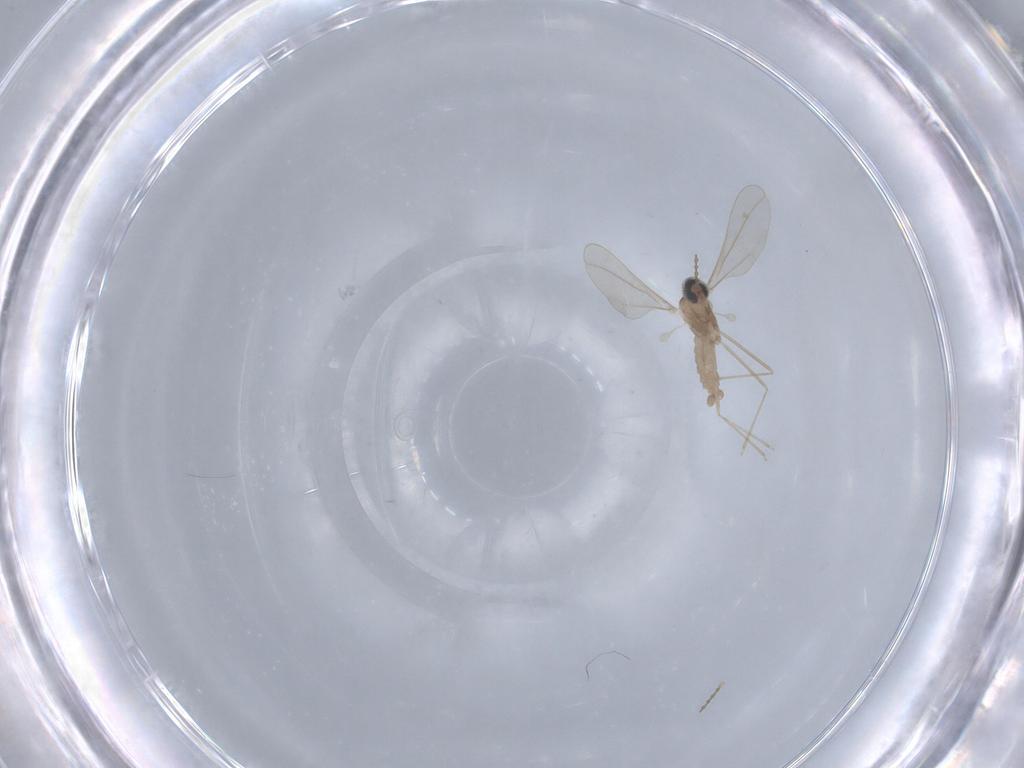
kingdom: Animalia
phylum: Arthropoda
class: Insecta
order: Diptera
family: Cecidomyiidae
